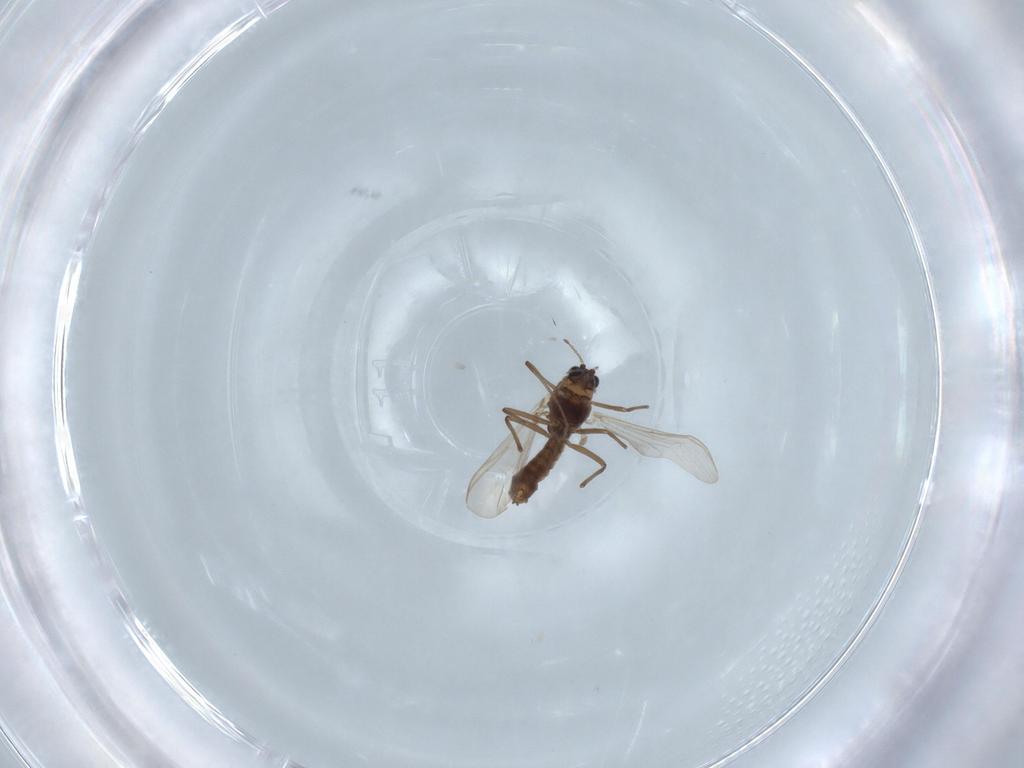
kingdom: Animalia
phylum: Arthropoda
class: Insecta
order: Diptera
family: Chironomidae
